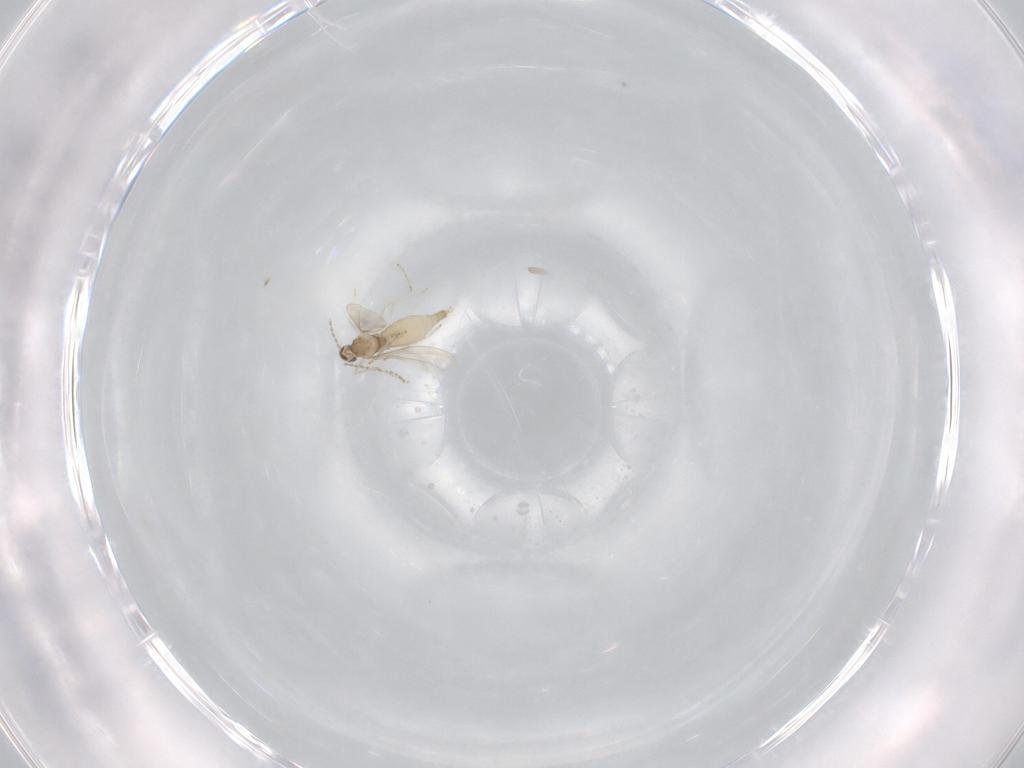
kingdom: Animalia
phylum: Arthropoda
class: Insecta
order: Diptera
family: Cecidomyiidae
